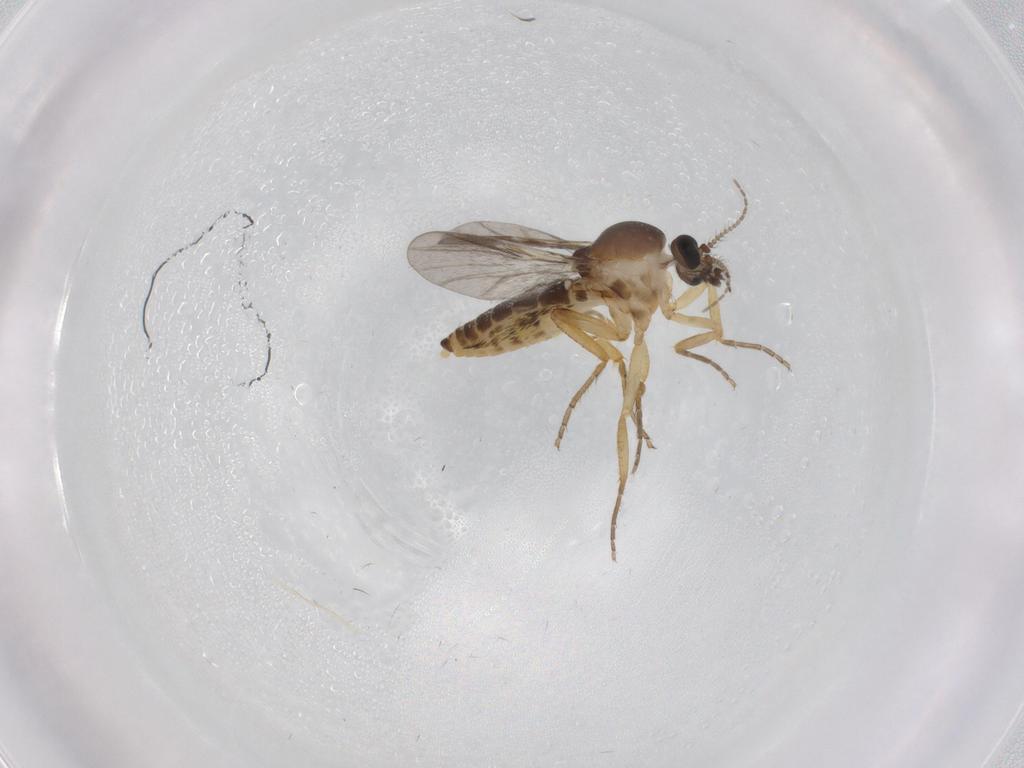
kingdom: Animalia
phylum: Arthropoda
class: Insecta
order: Diptera
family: Ceratopogonidae
